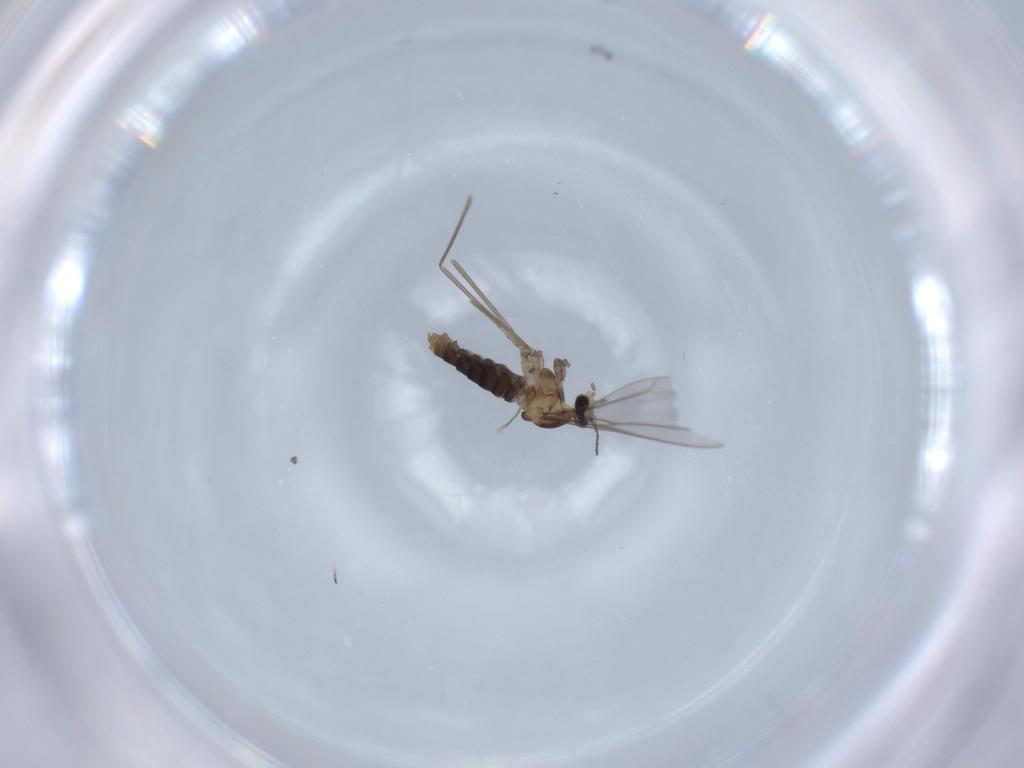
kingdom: Animalia
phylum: Arthropoda
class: Insecta
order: Diptera
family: Cecidomyiidae
